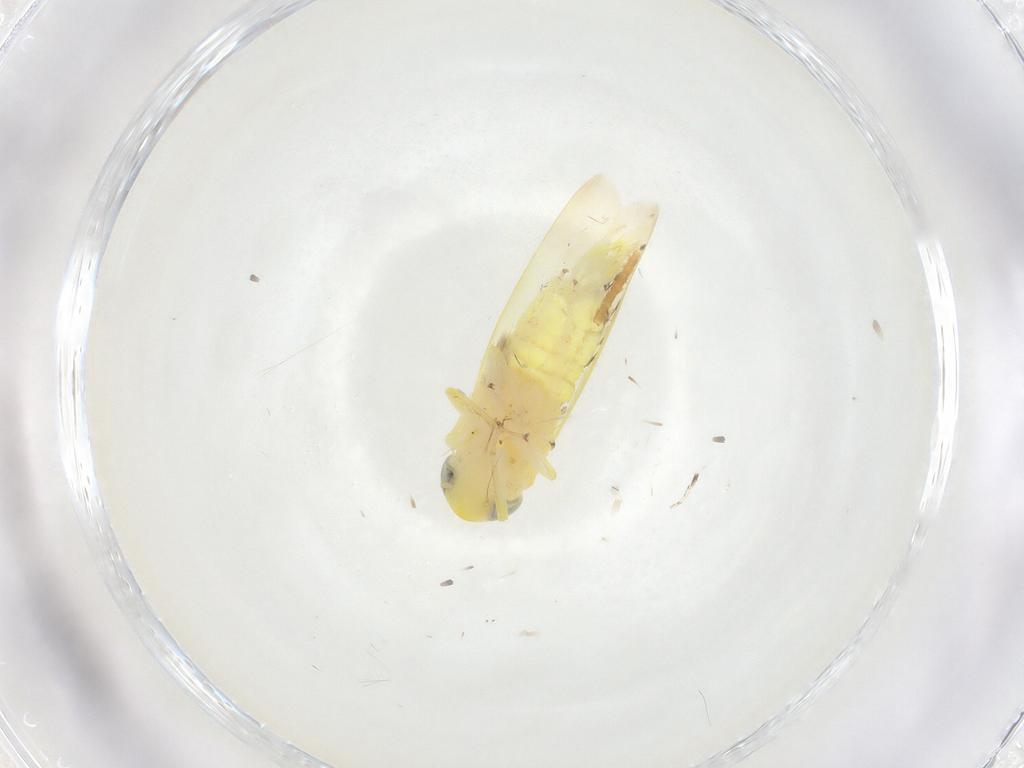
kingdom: Animalia
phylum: Arthropoda
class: Insecta
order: Hemiptera
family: Cicadellidae
